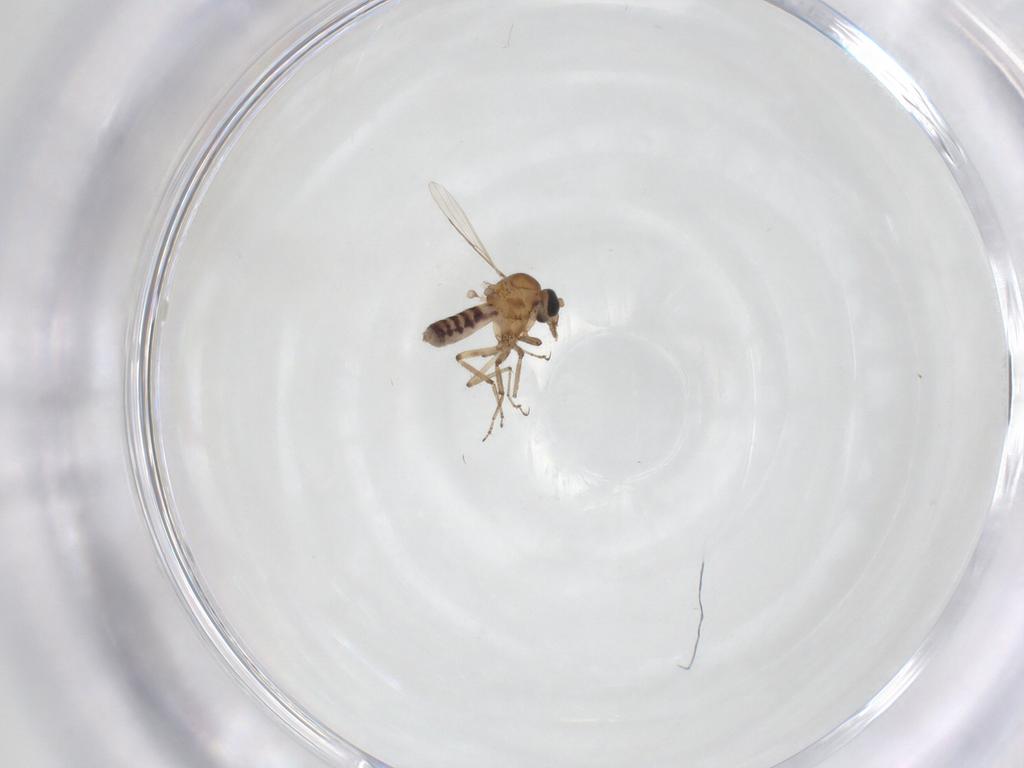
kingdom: Animalia
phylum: Arthropoda
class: Insecta
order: Diptera
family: Ceratopogonidae
